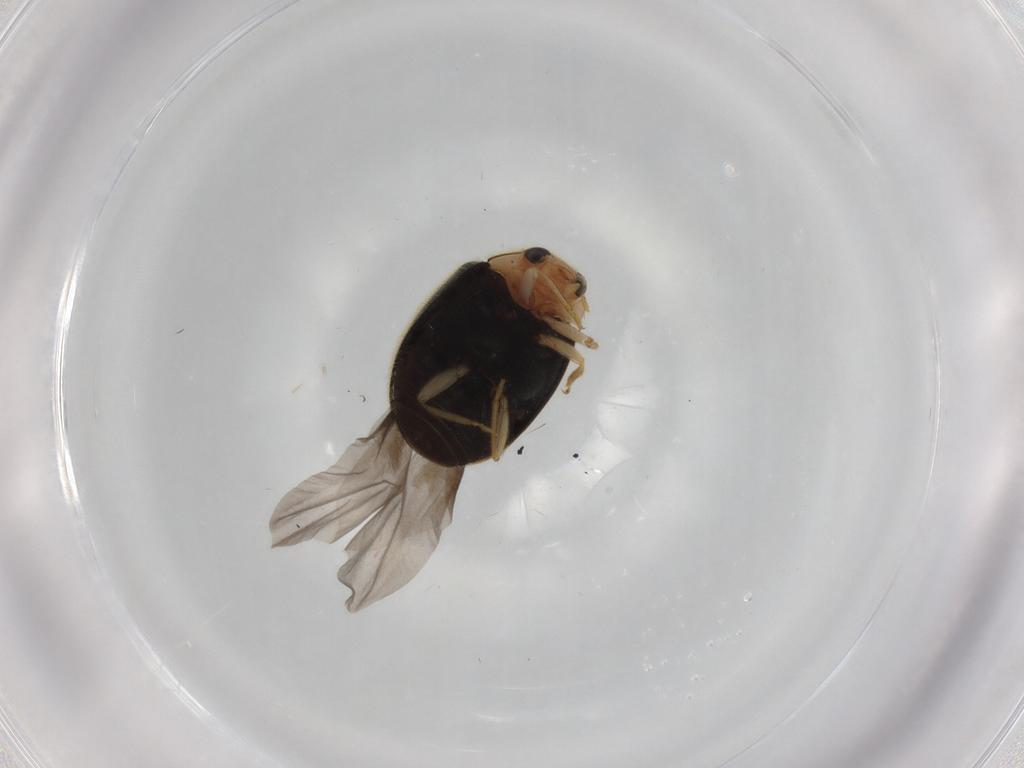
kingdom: Animalia
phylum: Arthropoda
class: Insecta
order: Coleoptera
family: Coccinellidae
